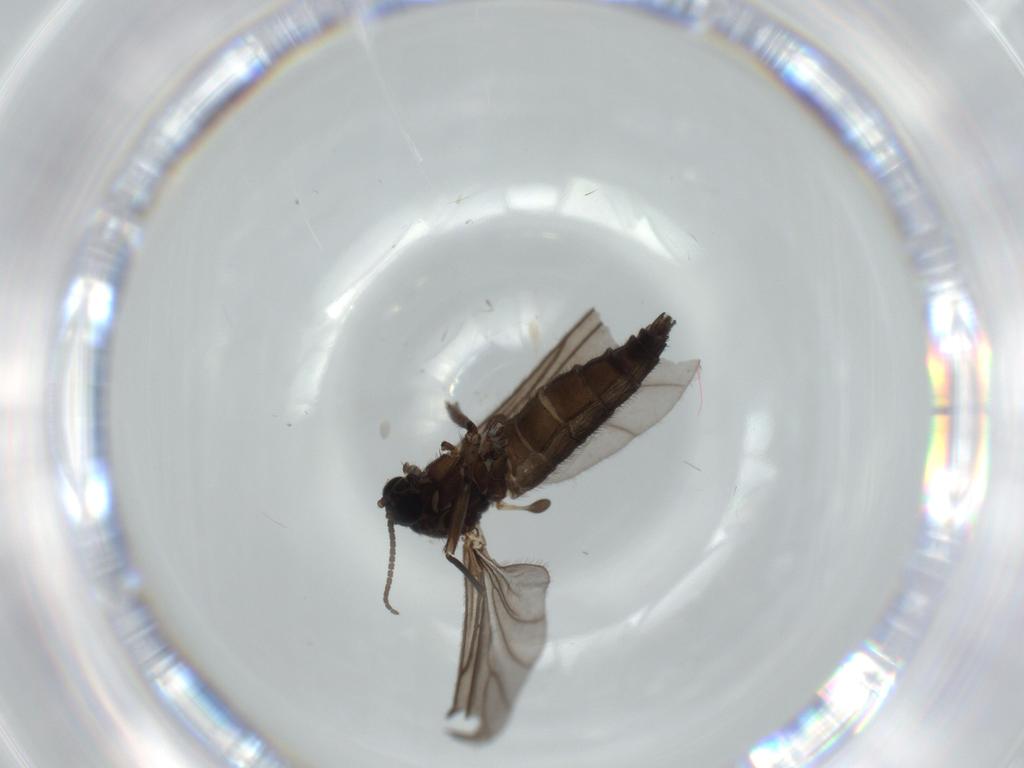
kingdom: Animalia
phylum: Arthropoda
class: Insecta
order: Diptera
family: Sciaridae
